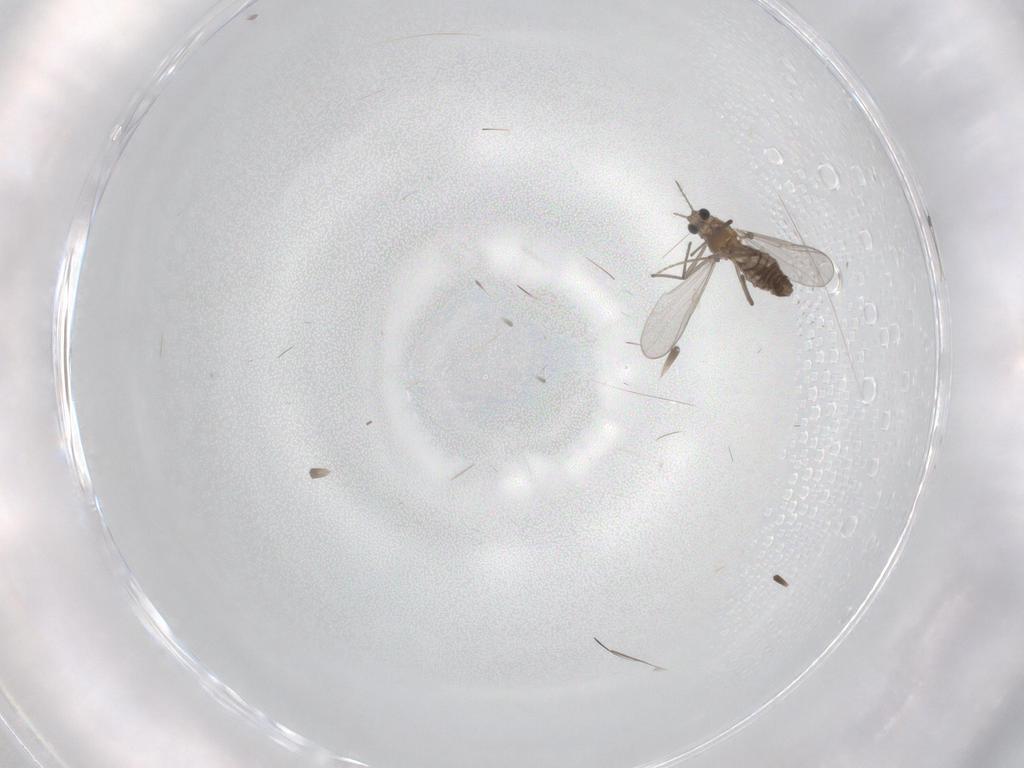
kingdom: Animalia
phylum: Arthropoda
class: Insecta
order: Diptera
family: Chironomidae
